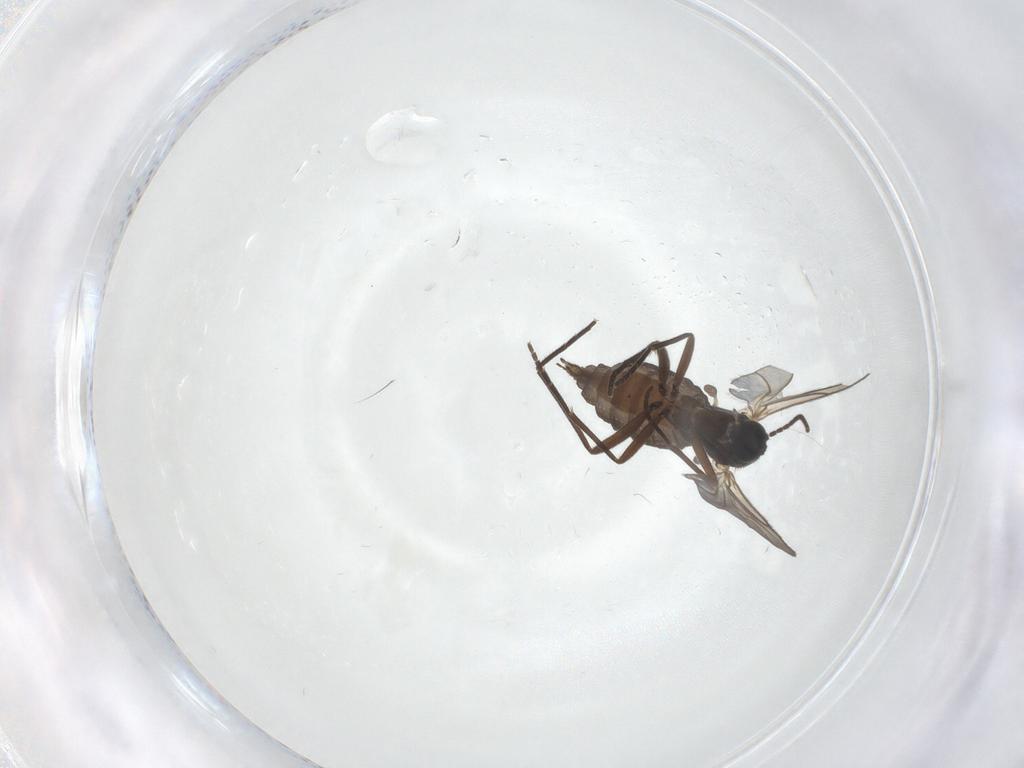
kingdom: Animalia
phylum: Arthropoda
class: Insecta
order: Diptera
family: Sciaridae
